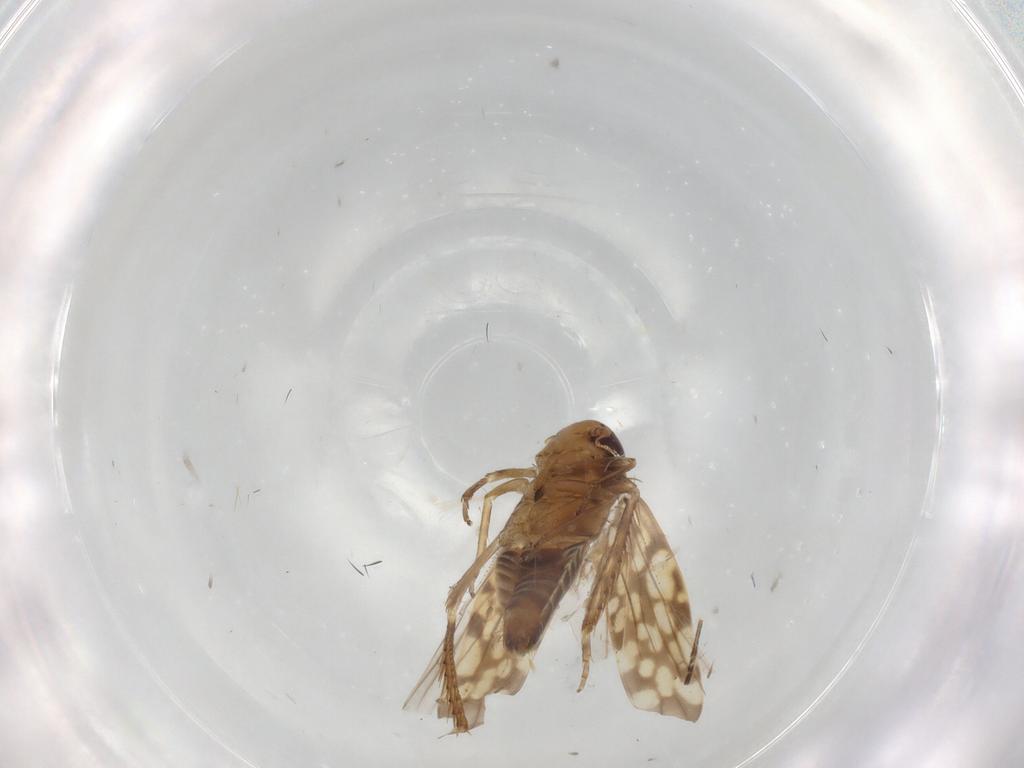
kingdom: Animalia
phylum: Arthropoda
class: Insecta
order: Hemiptera
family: Cicadellidae
